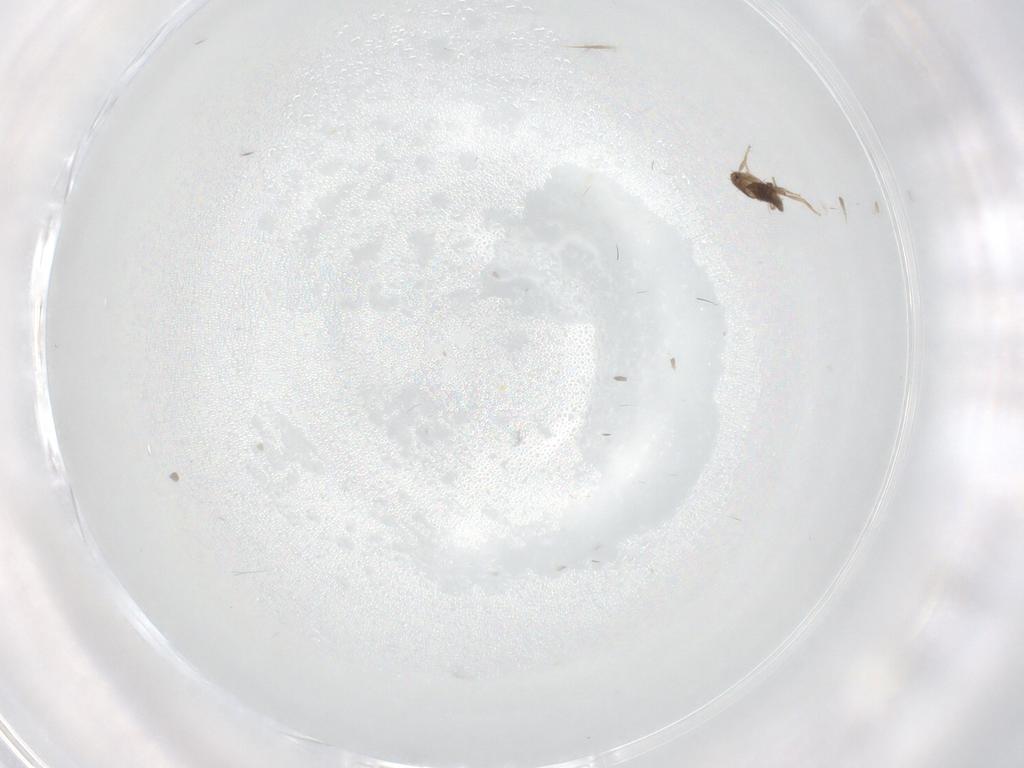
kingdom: Animalia
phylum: Arthropoda
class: Insecta
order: Diptera
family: Cecidomyiidae
